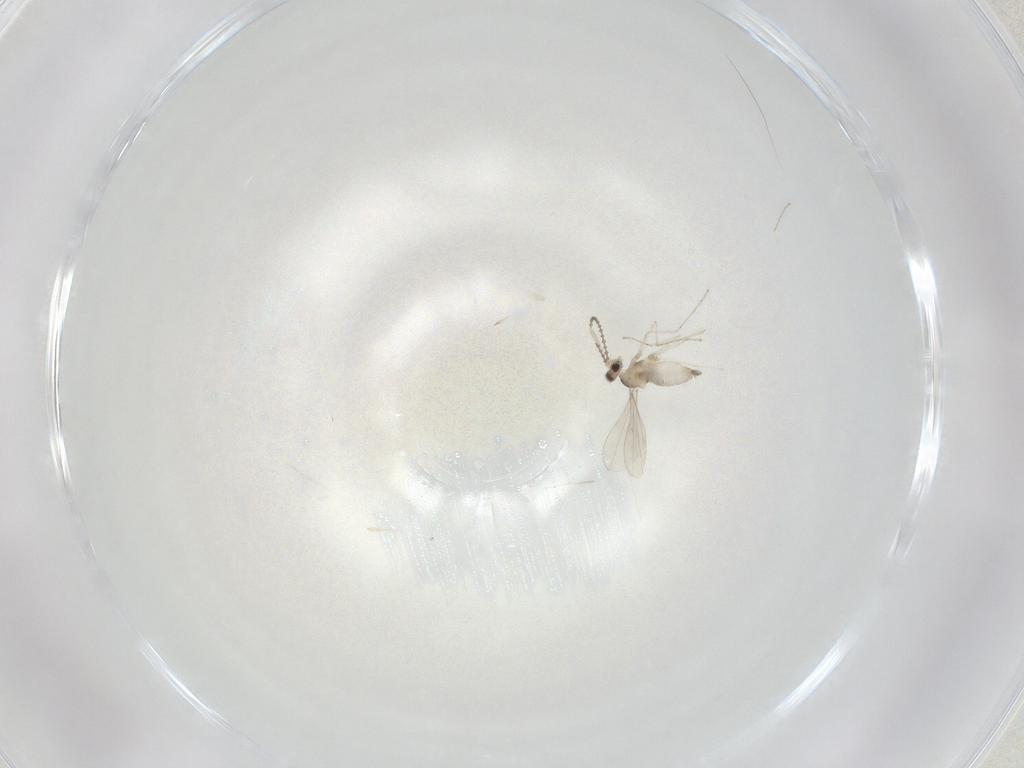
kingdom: Animalia
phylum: Arthropoda
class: Insecta
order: Diptera
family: Cecidomyiidae
